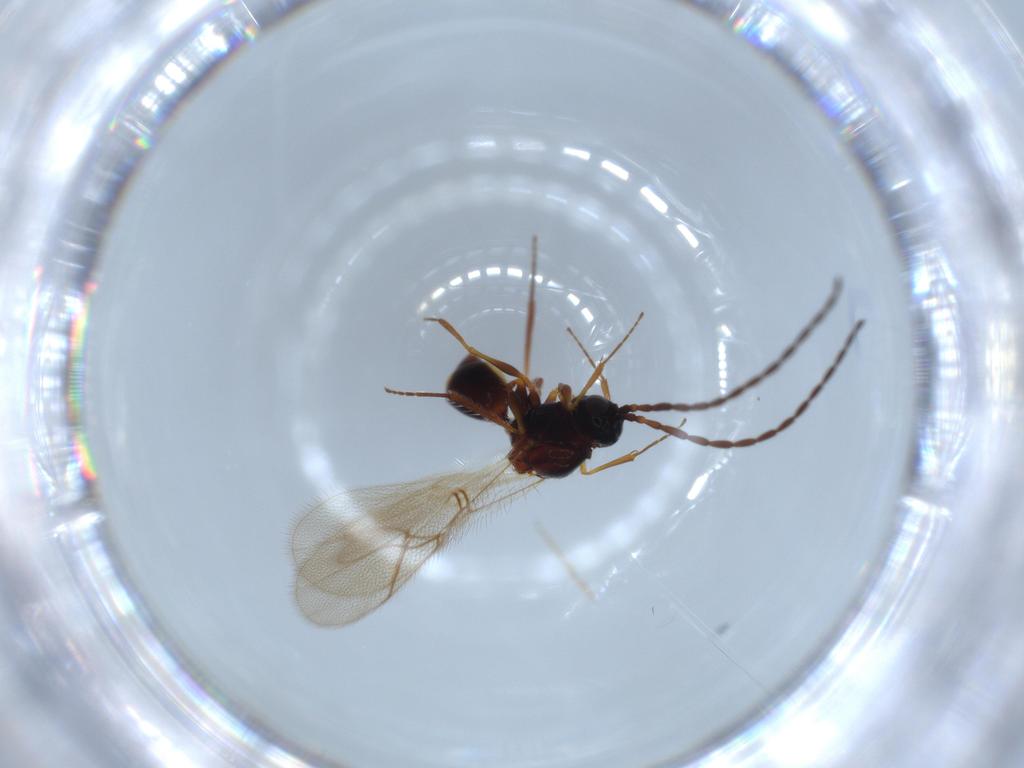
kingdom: Animalia
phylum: Arthropoda
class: Insecta
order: Hymenoptera
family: Figitidae
